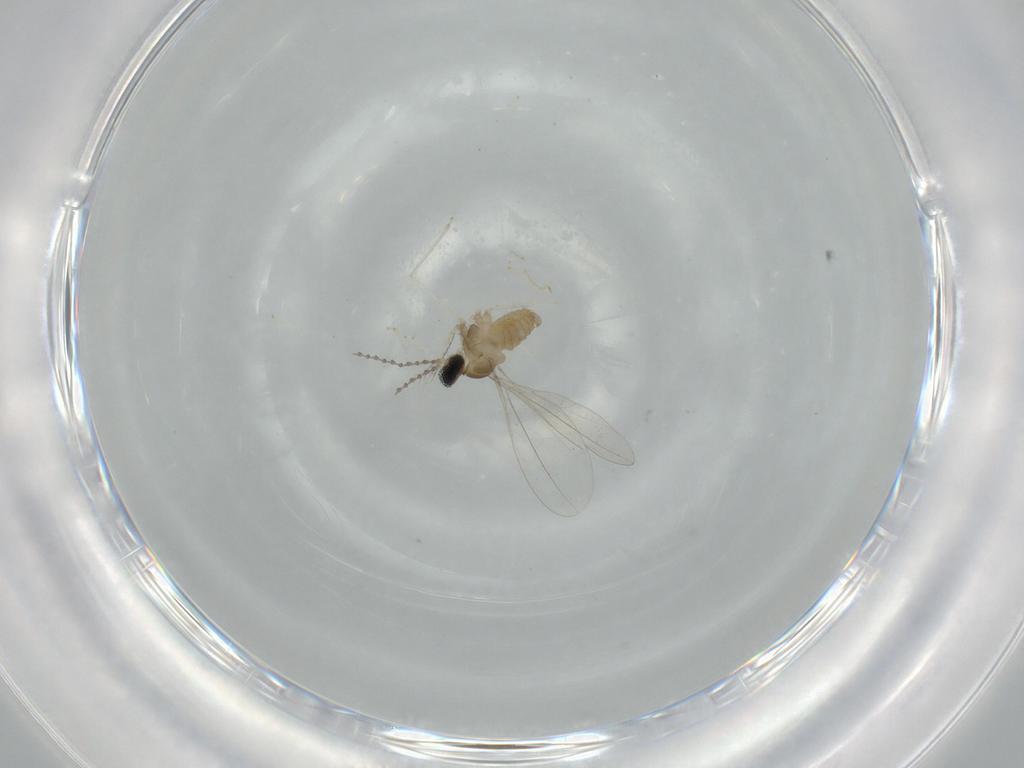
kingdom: Animalia
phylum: Arthropoda
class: Insecta
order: Diptera
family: Cecidomyiidae
